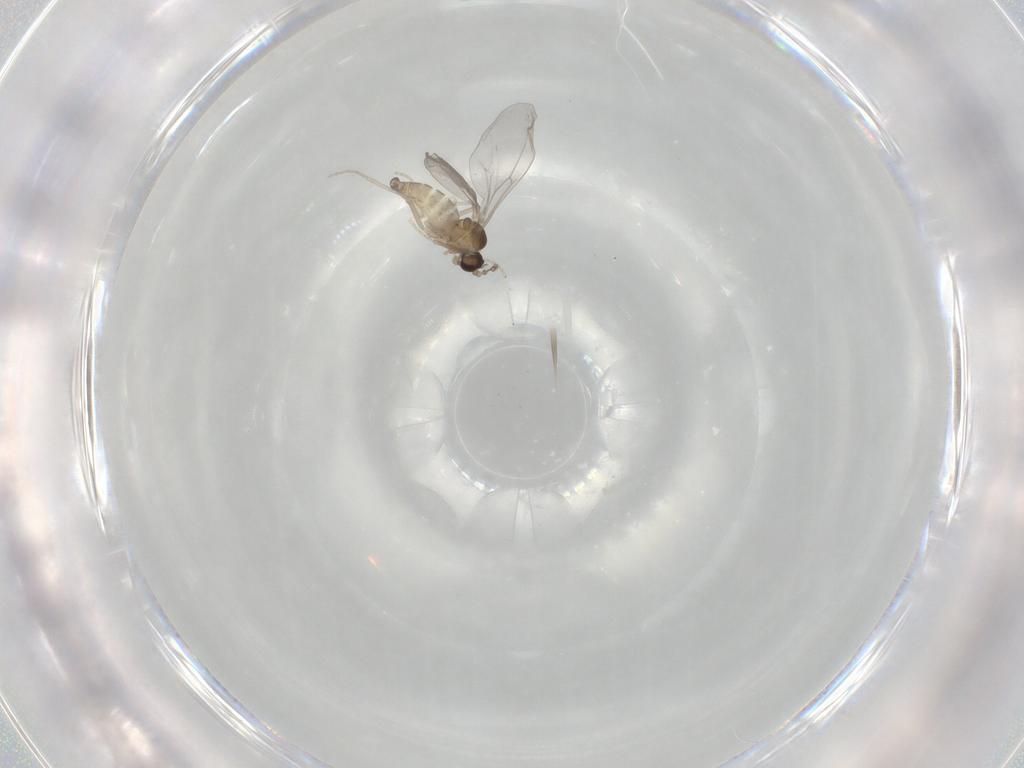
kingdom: Animalia
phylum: Arthropoda
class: Insecta
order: Diptera
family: Cecidomyiidae
